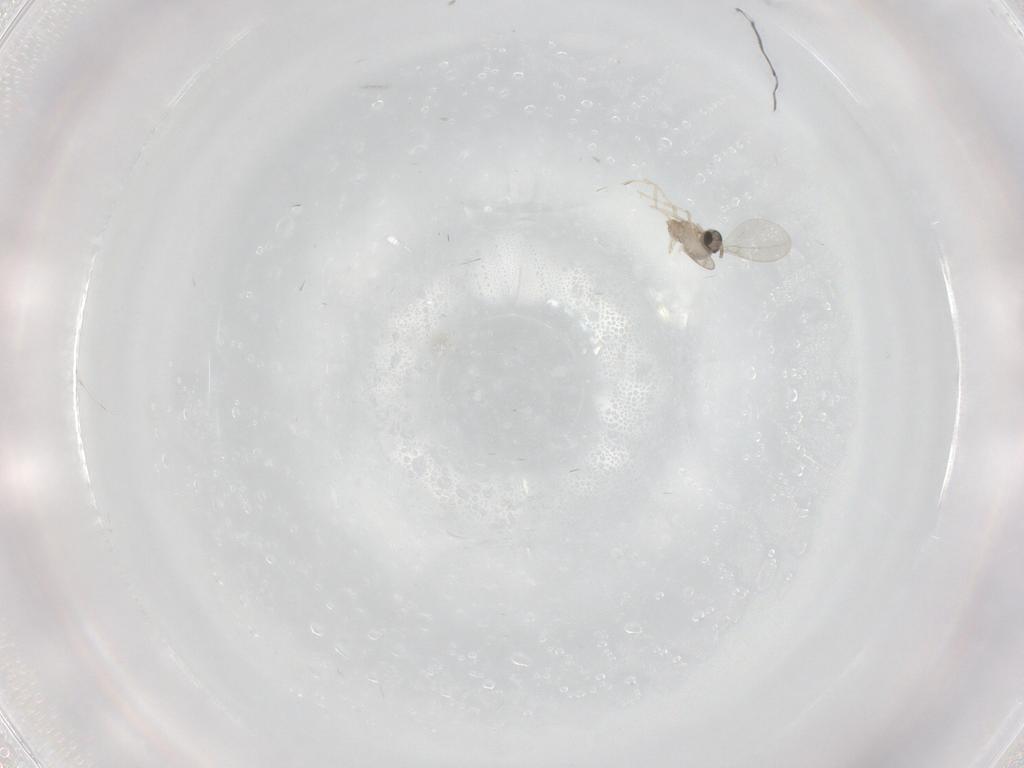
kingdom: Animalia
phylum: Arthropoda
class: Insecta
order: Diptera
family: Cecidomyiidae
